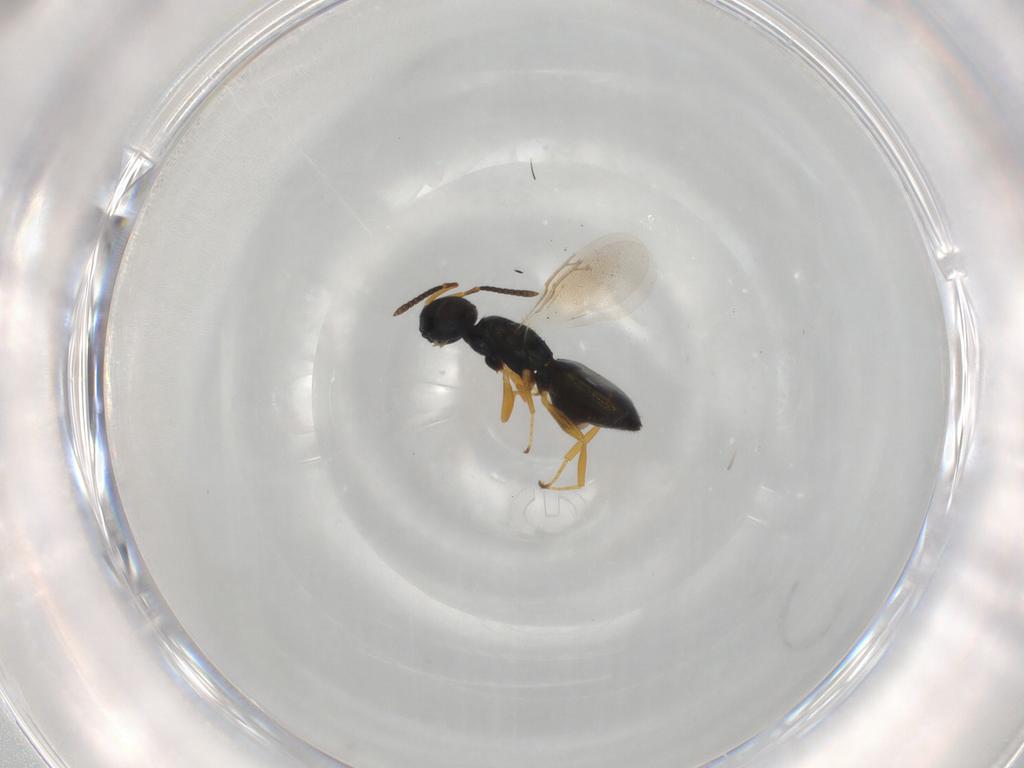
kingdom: Animalia
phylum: Arthropoda
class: Insecta
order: Hymenoptera
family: Pteromalidae
